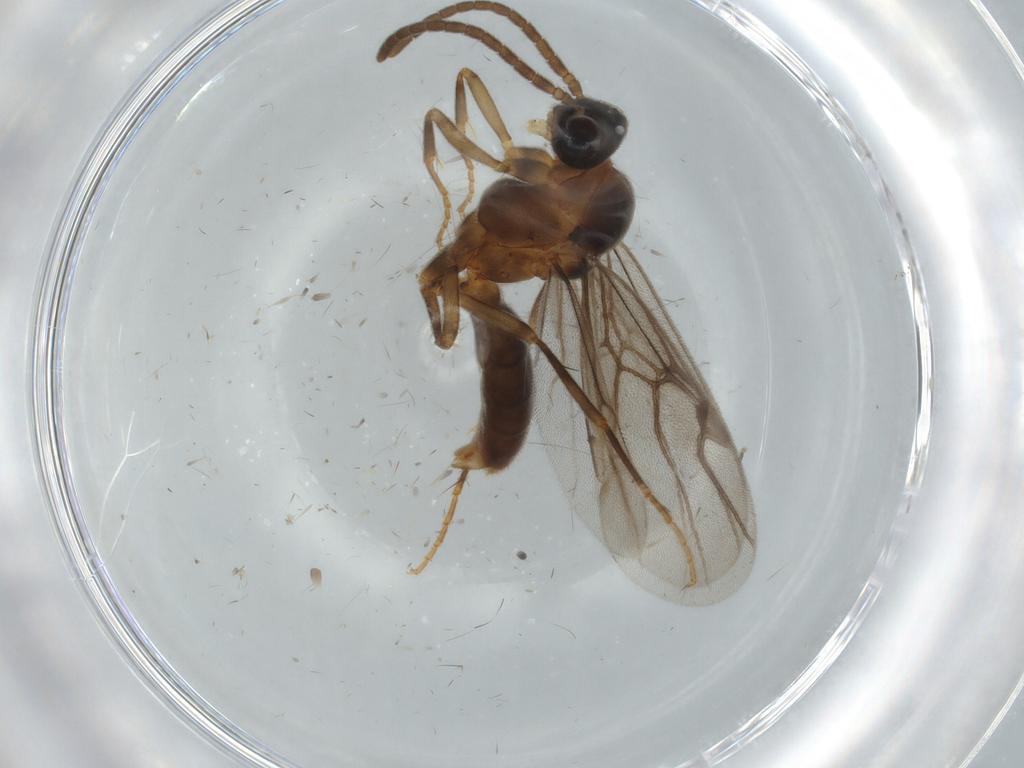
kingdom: Animalia
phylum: Arthropoda
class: Insecta
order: Hymenoptera
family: Formicidae
